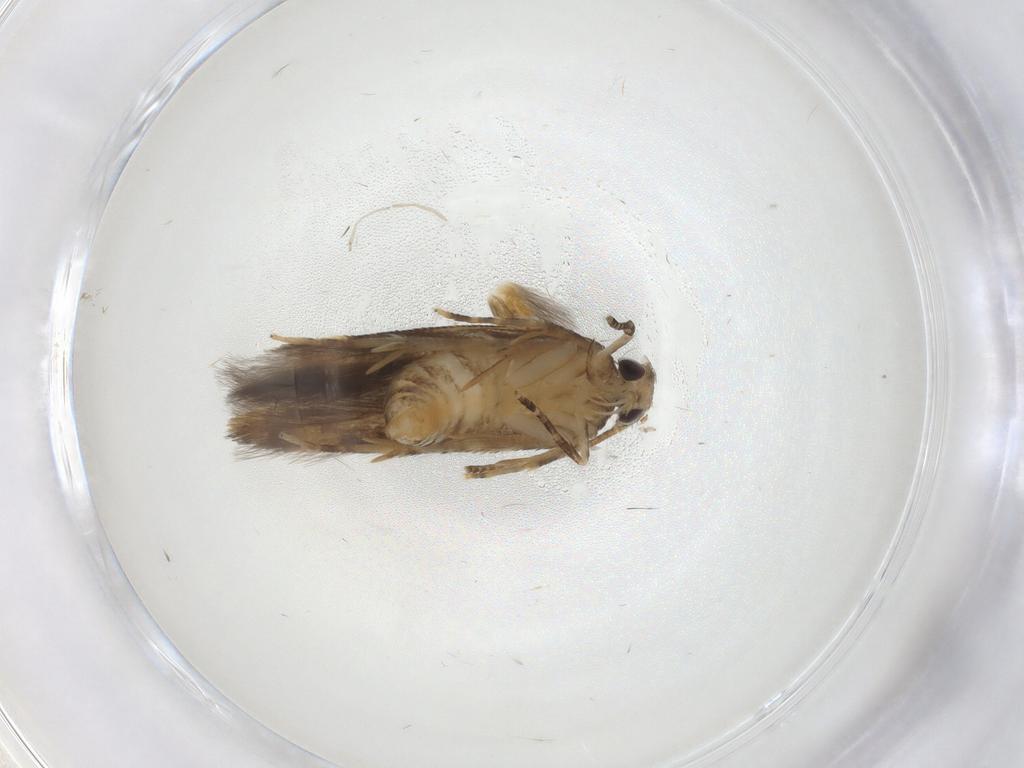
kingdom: Animalia
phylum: Arthropoda
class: Insecta
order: Lepidoptera
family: Cosmopterigidae
